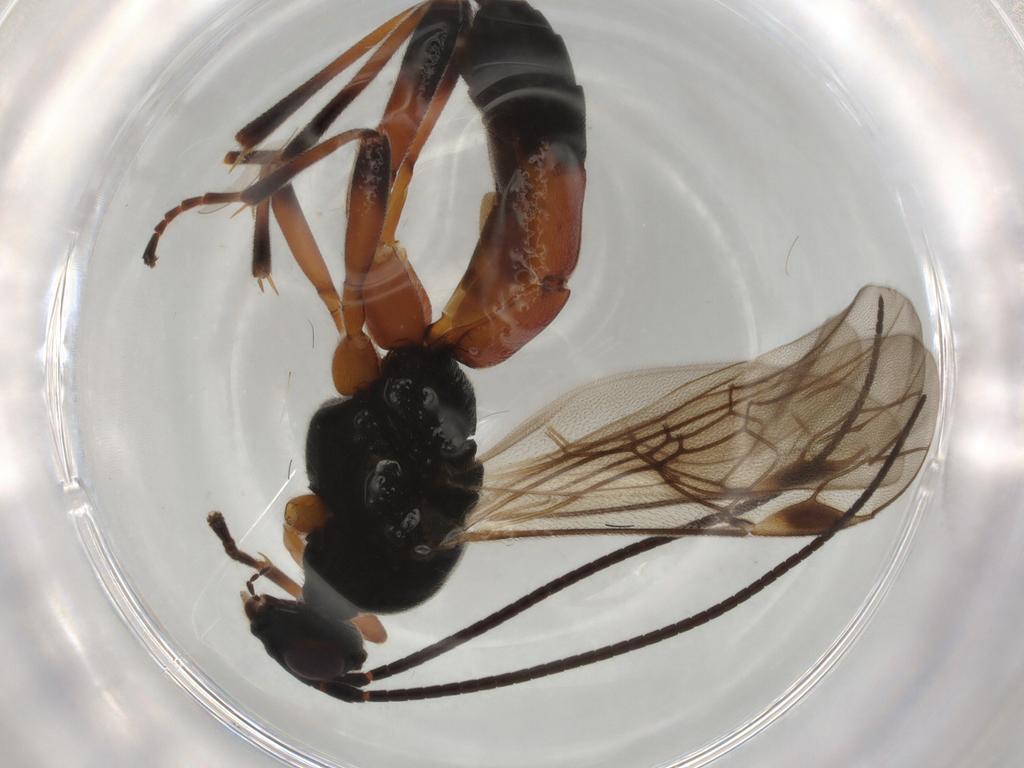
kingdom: Animalia
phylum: Arthropoda
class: Insecta
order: Hymenoptera
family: Braconidae
